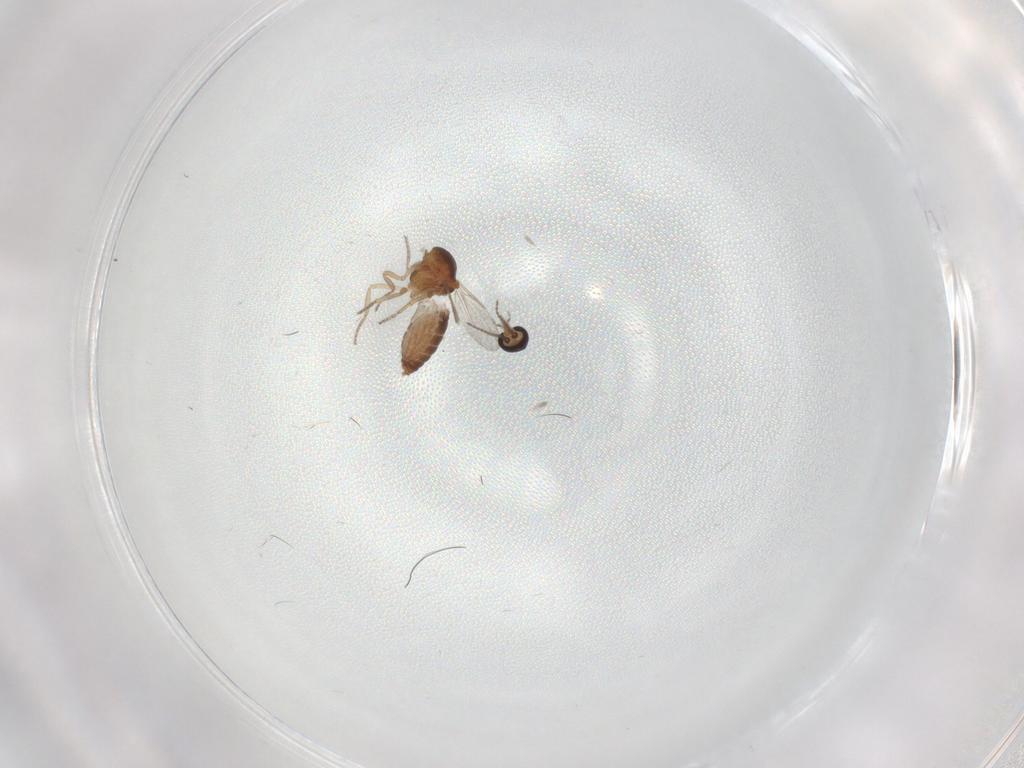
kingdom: Animalia
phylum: Arthropoda
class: Insecta
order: Diptera
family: Ceratopogonidae
